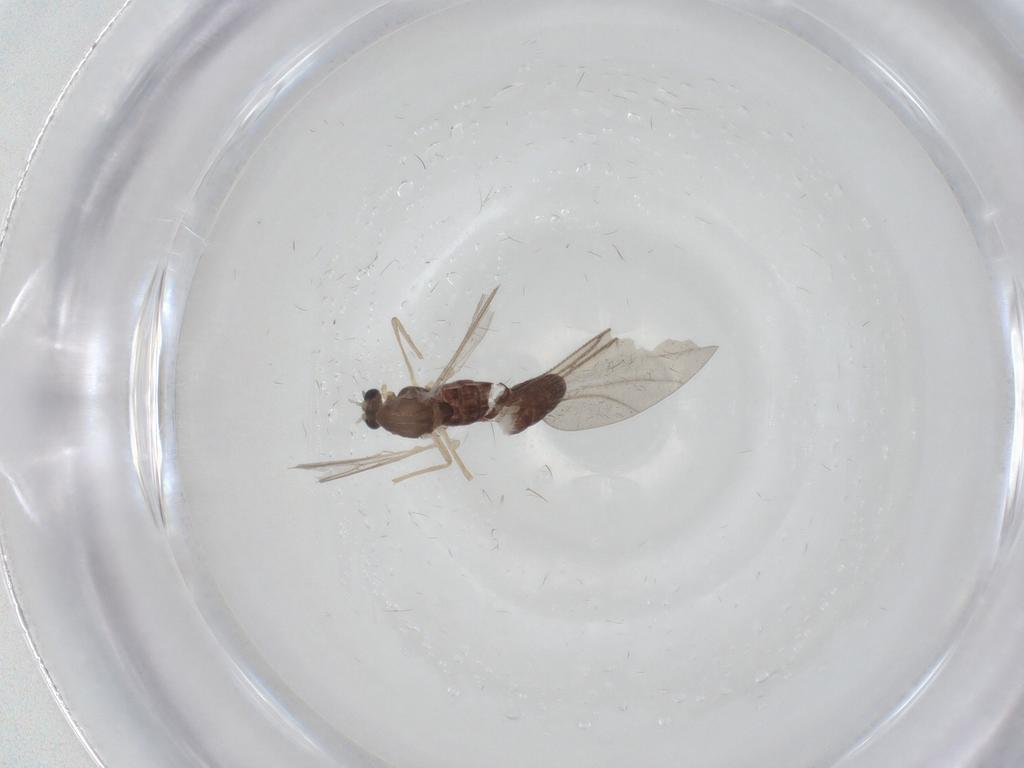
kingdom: Animalia
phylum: Arthropoda
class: Insecta
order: Diptera
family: Chironomidae
